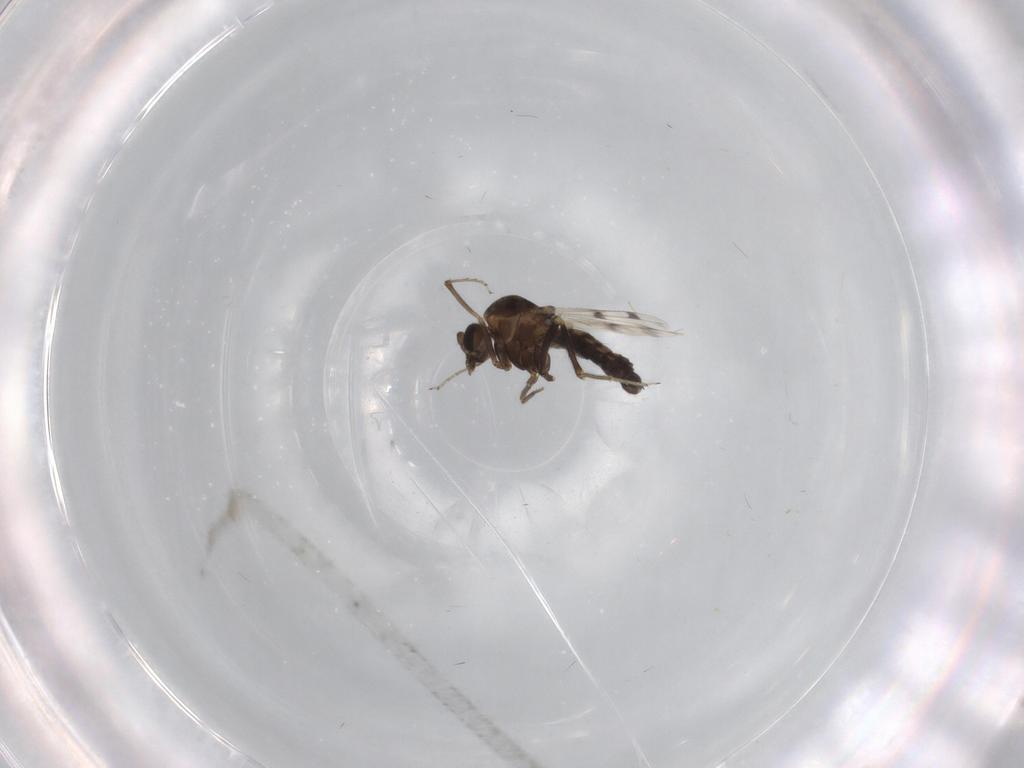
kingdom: Animalia
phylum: Arthropoda
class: Insecta
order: Diptera
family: Ceratopogonidae
